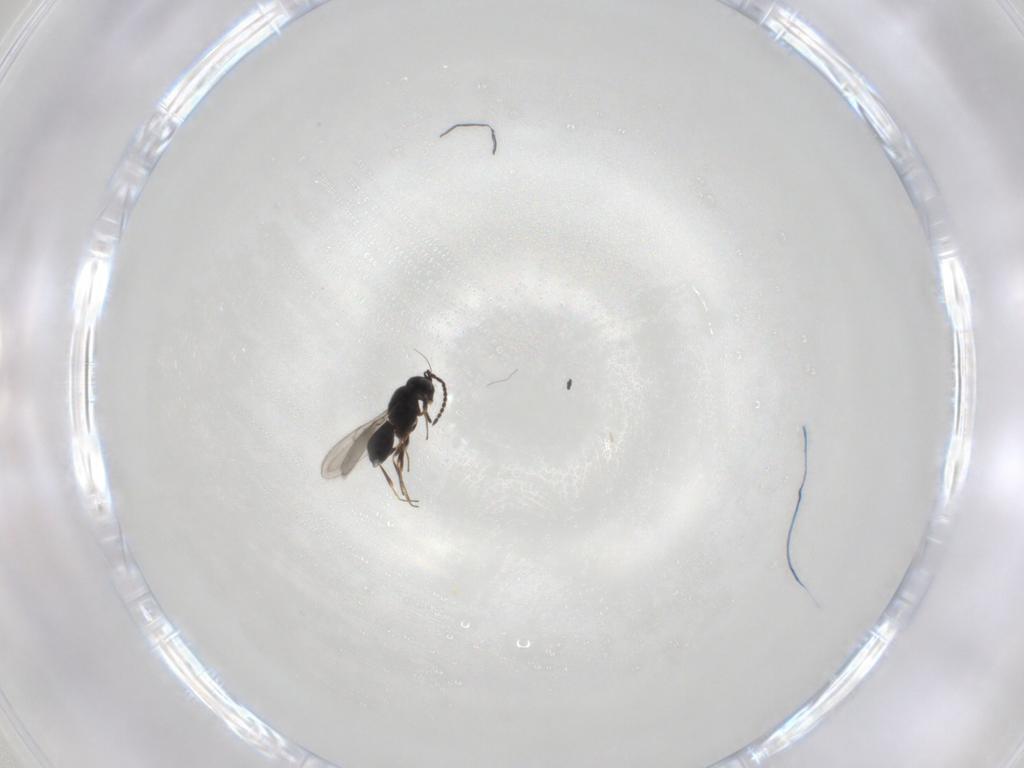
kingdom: Animalia
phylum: Arthropoda
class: Insecta
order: Hymenoptera
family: Scelionidae
